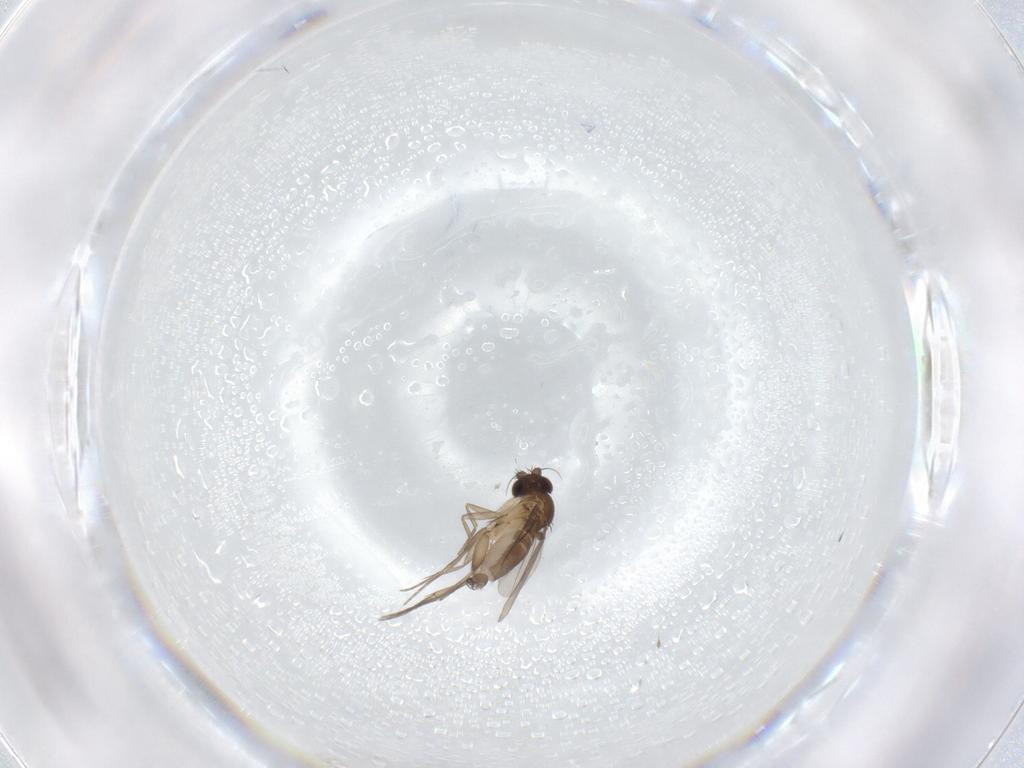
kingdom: Animalia
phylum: Arthropoda
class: Insecta
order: Diptera
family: Phoridae
